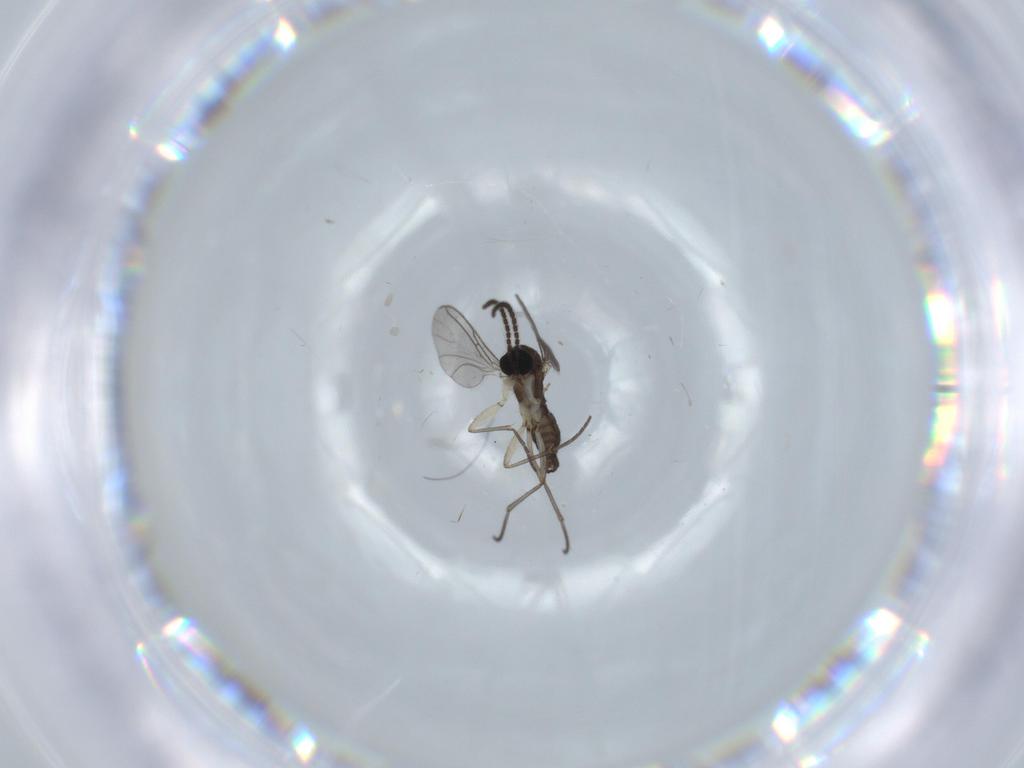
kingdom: Animalia
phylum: Arthropoda
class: Insecta
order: Diptera
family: Sciaridae
